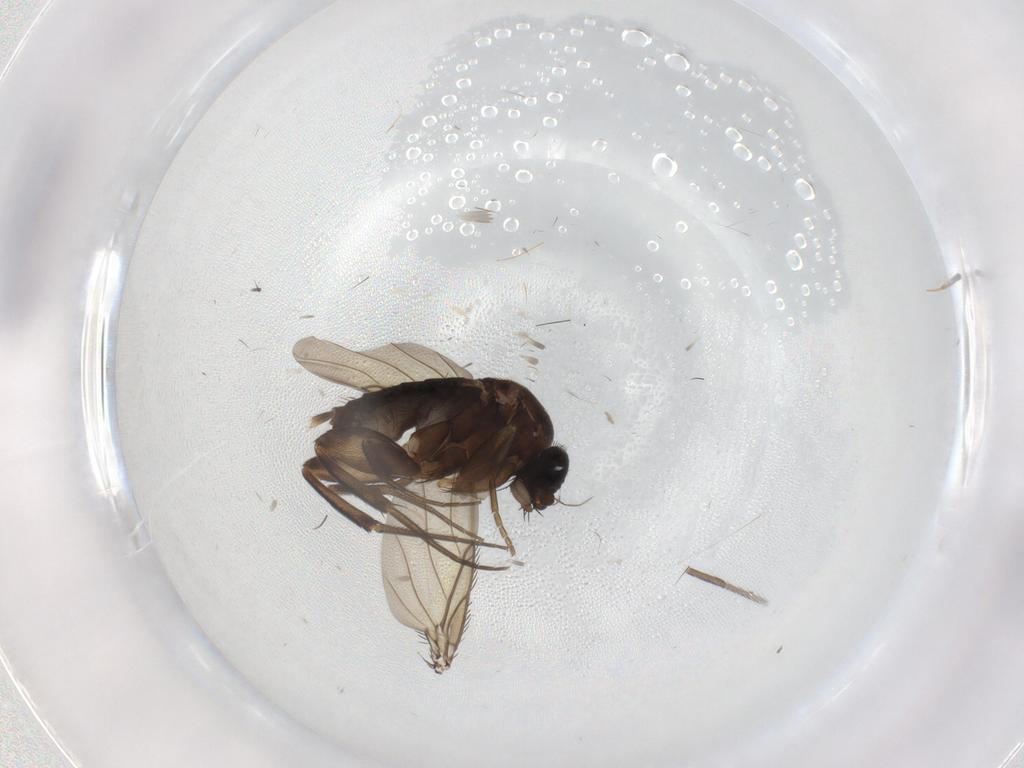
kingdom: Animalia
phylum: Arthropoda
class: Insecta
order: Diptera
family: Phoridae
